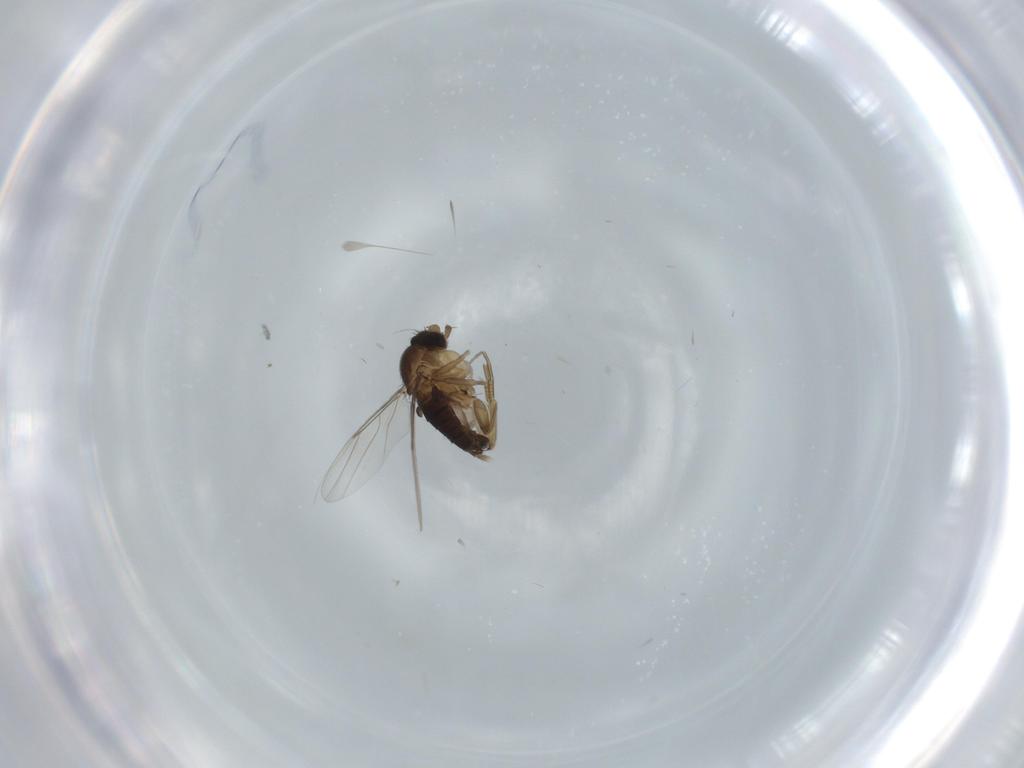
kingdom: Animalia
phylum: Arthropoda
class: Insecta
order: Diptera
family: Phoridae
